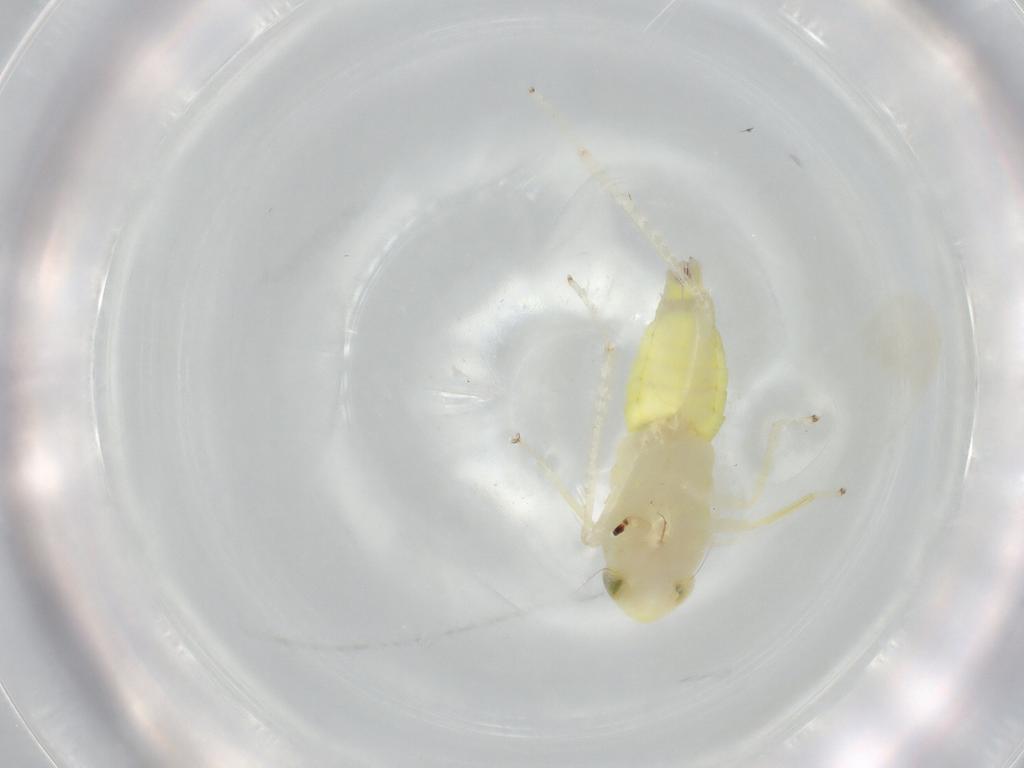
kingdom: Animalia
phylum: Arthropoda
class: Insecta
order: Hemiptera
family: Cicadellidae
